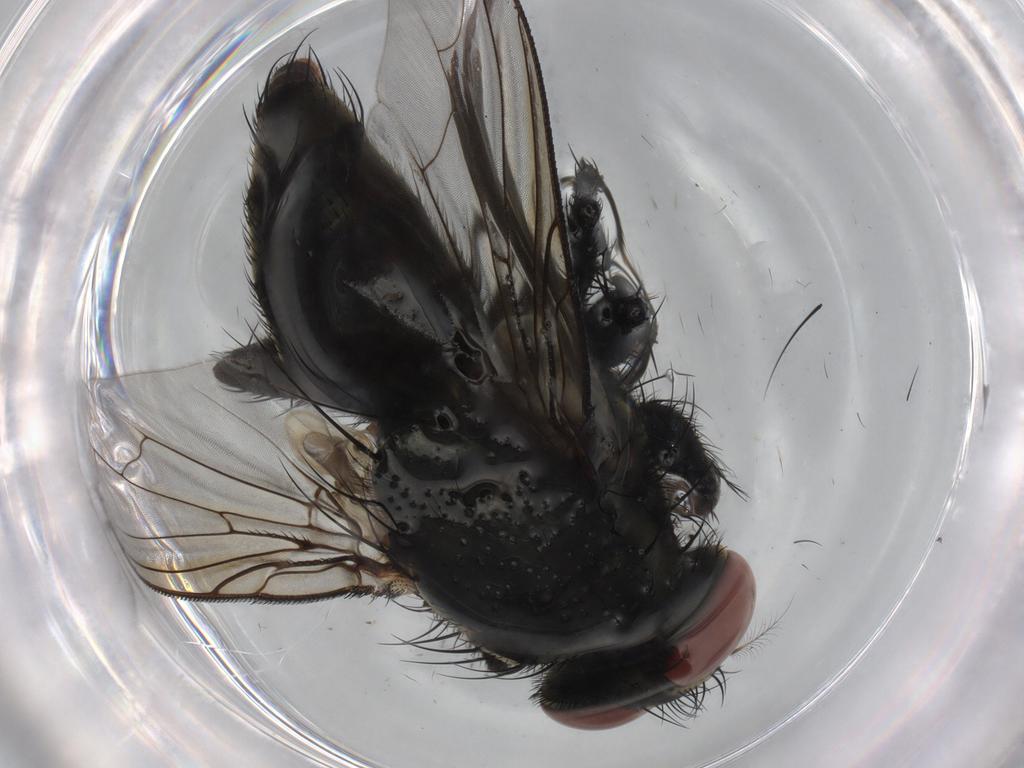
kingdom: Animalia
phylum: Arthropoda
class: Insecta
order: Diptera
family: Sarcophagidae
